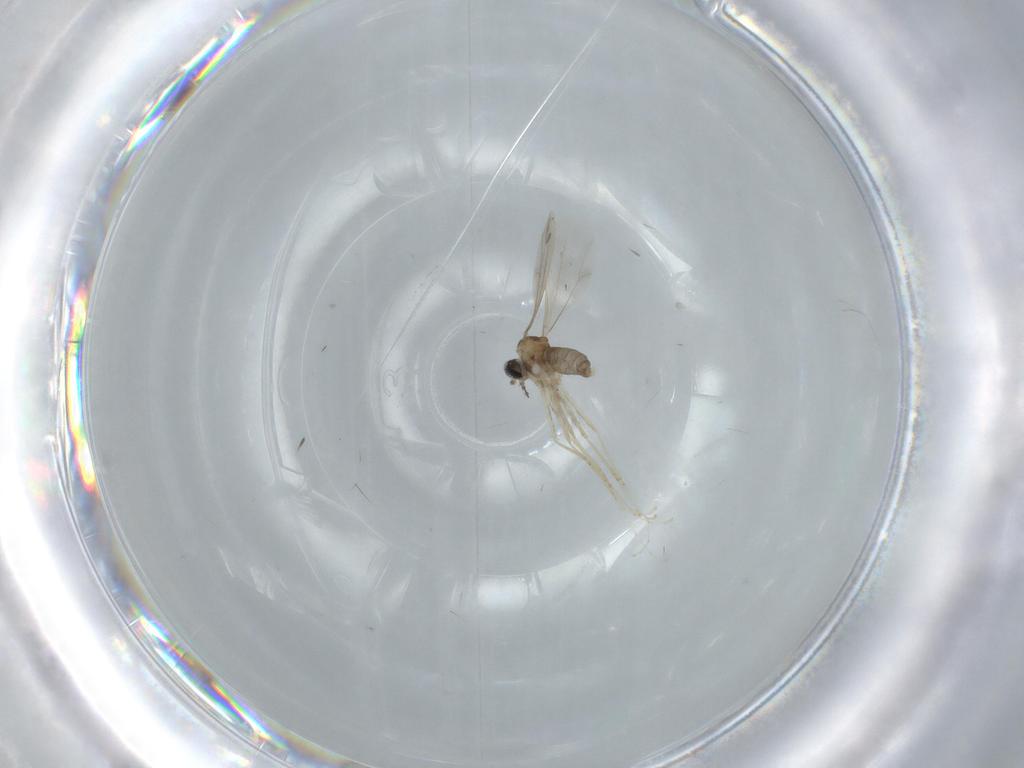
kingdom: Animalia
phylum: Arthropoda
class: Insecta
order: Diptera
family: Cecidomyiidae
